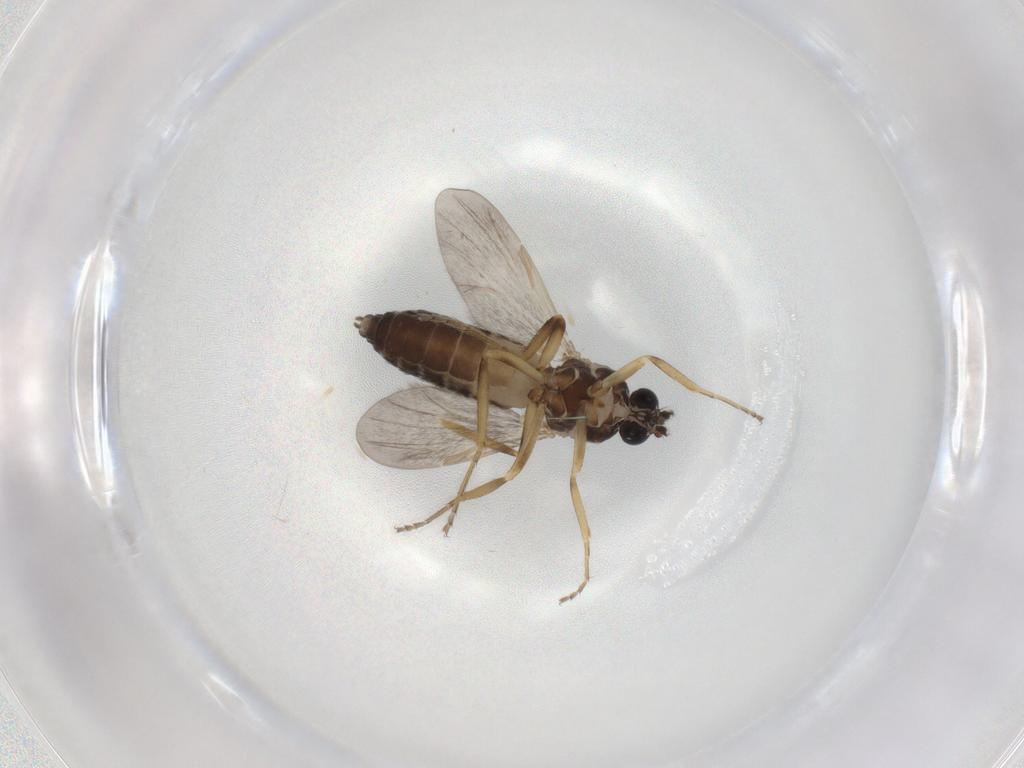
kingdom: Animalia
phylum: Arthropoda
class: Insecta
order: Diptera
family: Ceratopogonidae
